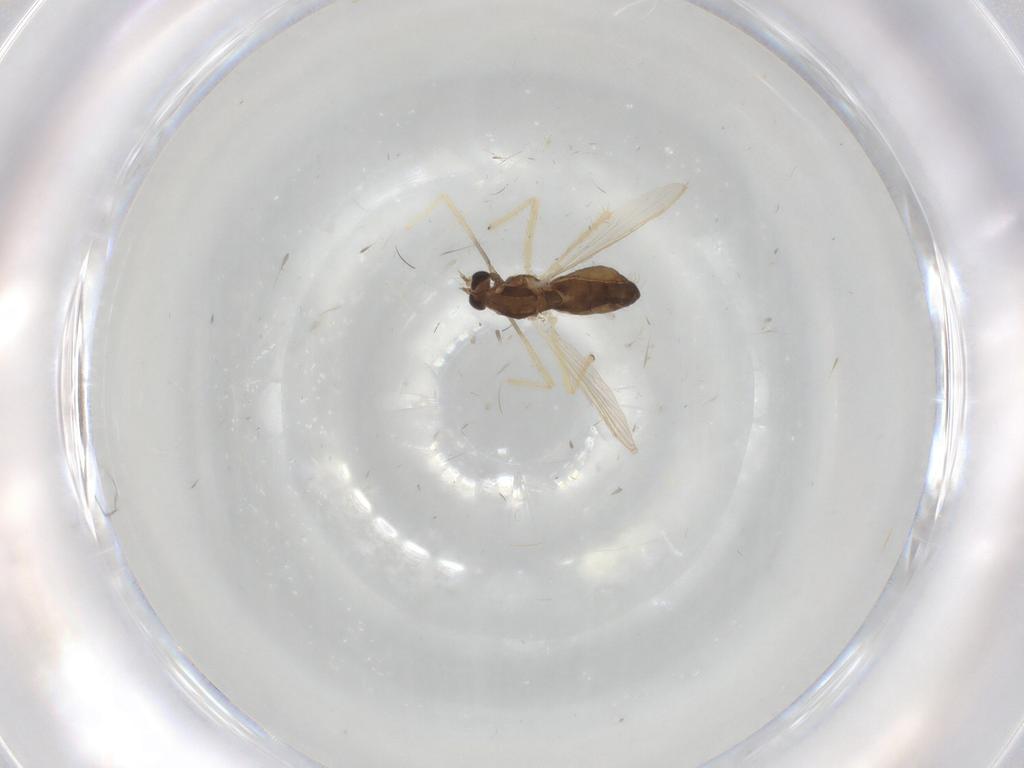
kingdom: Animalia
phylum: Arthropoda
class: Insecta
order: Diptera
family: Chironomidae
